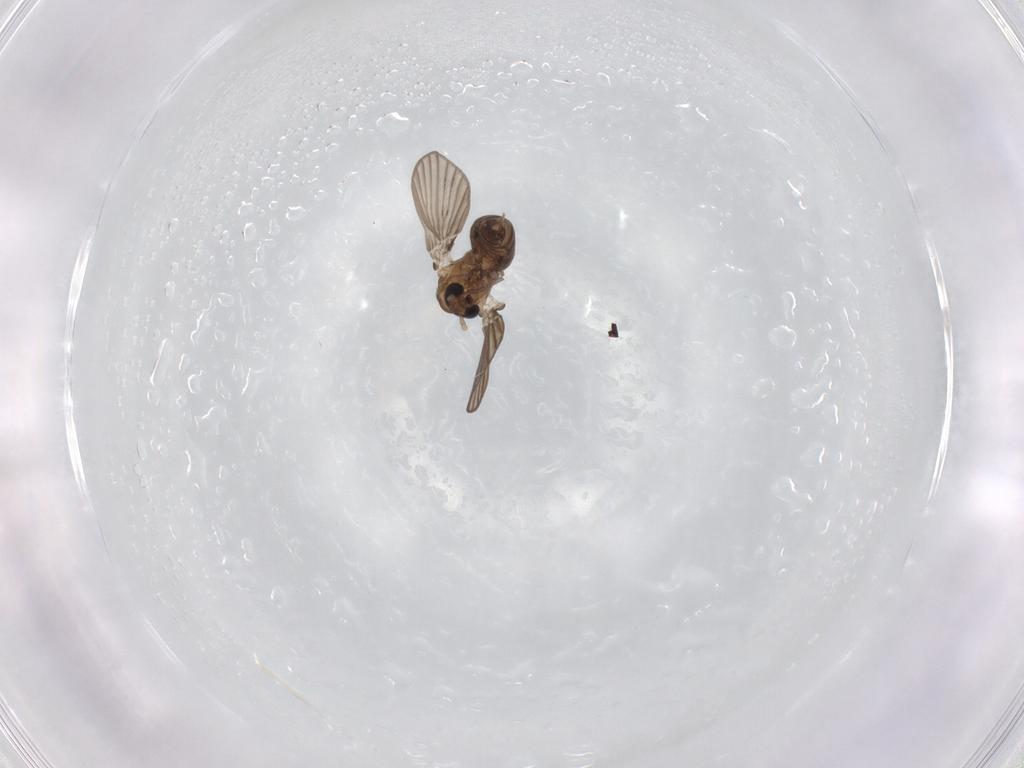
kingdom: Animalia
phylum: Arthropoda
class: Insecta
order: Diptera
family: Psychodidae
